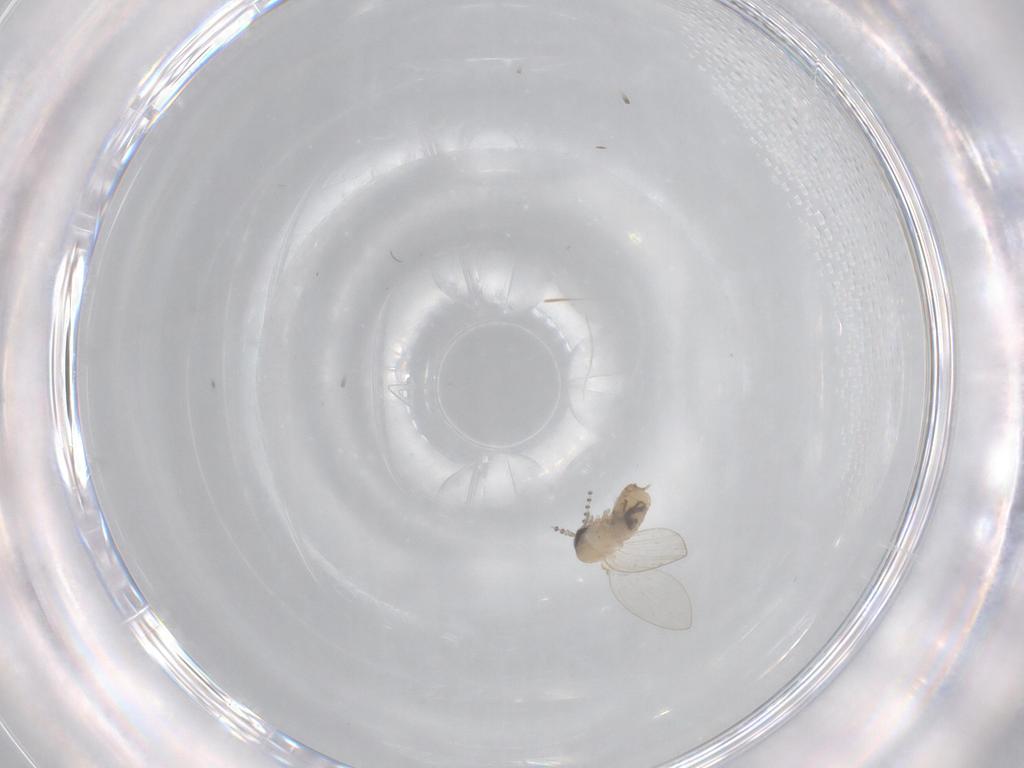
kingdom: Animalia
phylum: Arthropoda
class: Insecta
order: Diptera
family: Psychodidae
